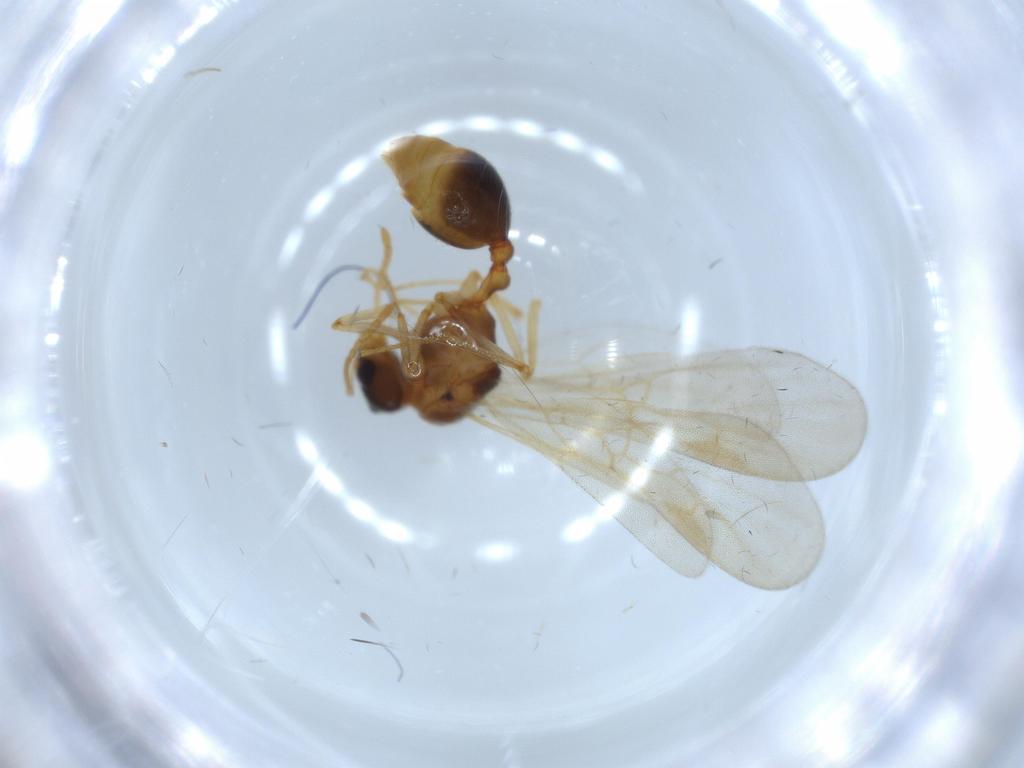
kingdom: Animalia
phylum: Arthropoda
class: Insecta
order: Hymenoptera
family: Formicidae
